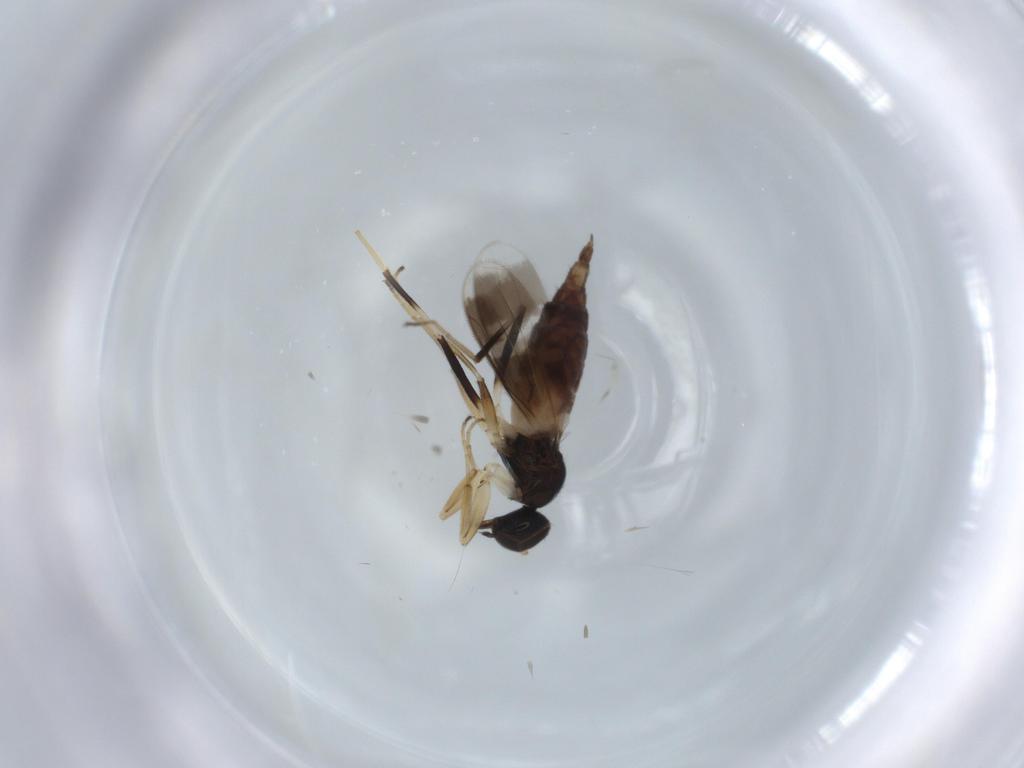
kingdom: Animalia
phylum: Arthropoda
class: Insecta
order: Diptera
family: Hybotidae
